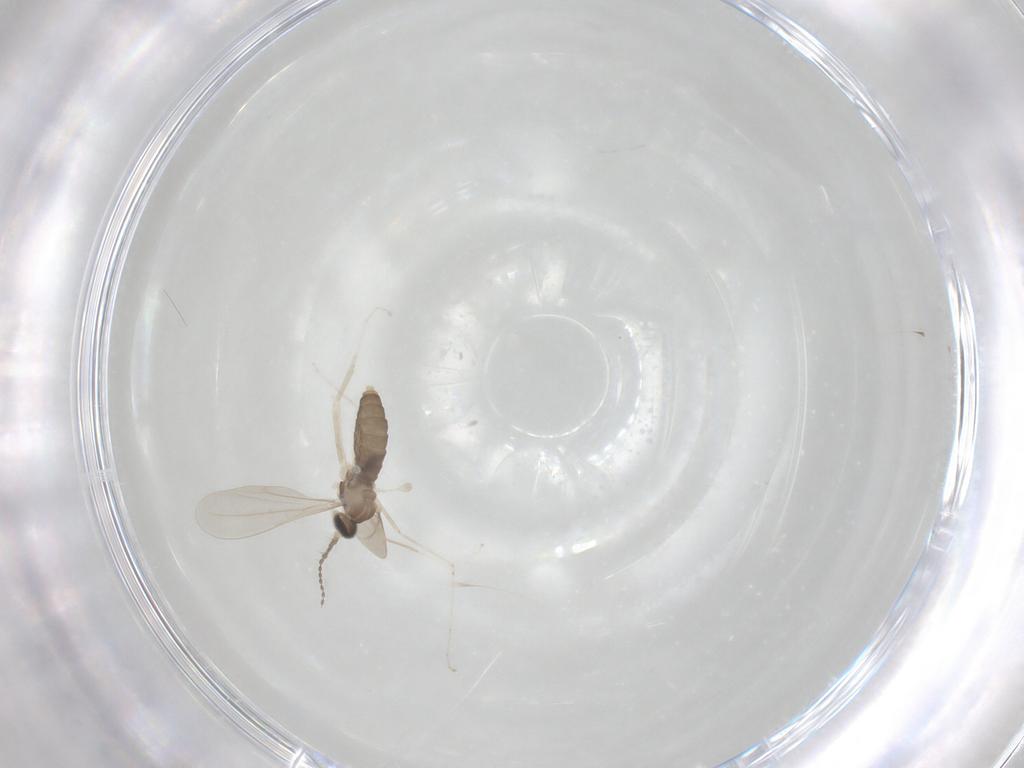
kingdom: Animalia
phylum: Arthropoda
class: Insecta
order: Diptera
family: Cecidomyiidae
